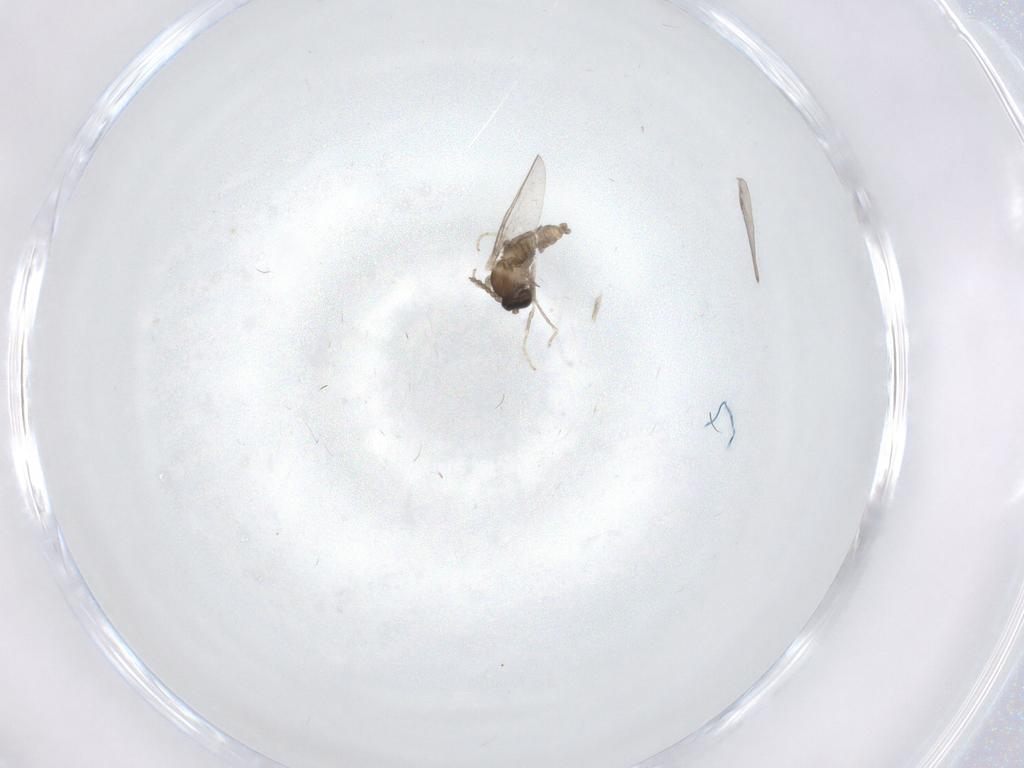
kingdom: Animalia
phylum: Arthropoda
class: Insecta
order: Diptera
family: Cecidomyiidae
